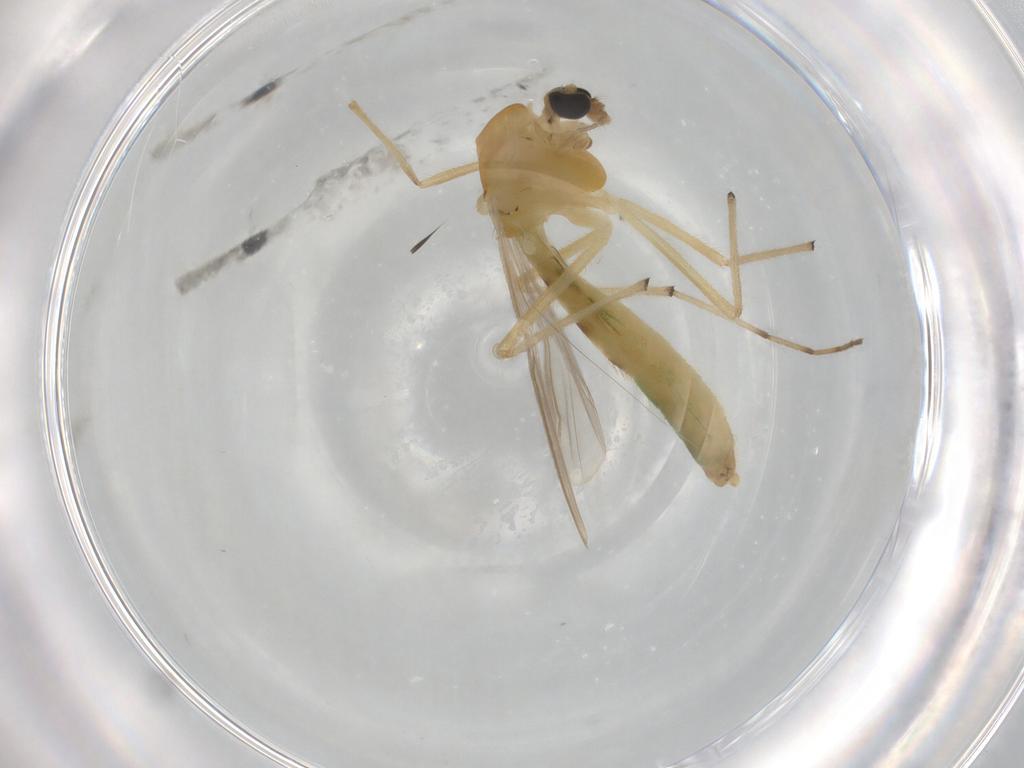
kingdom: Animalia
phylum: Arthropoda
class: Insecta
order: Diptera
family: Chironomidae
